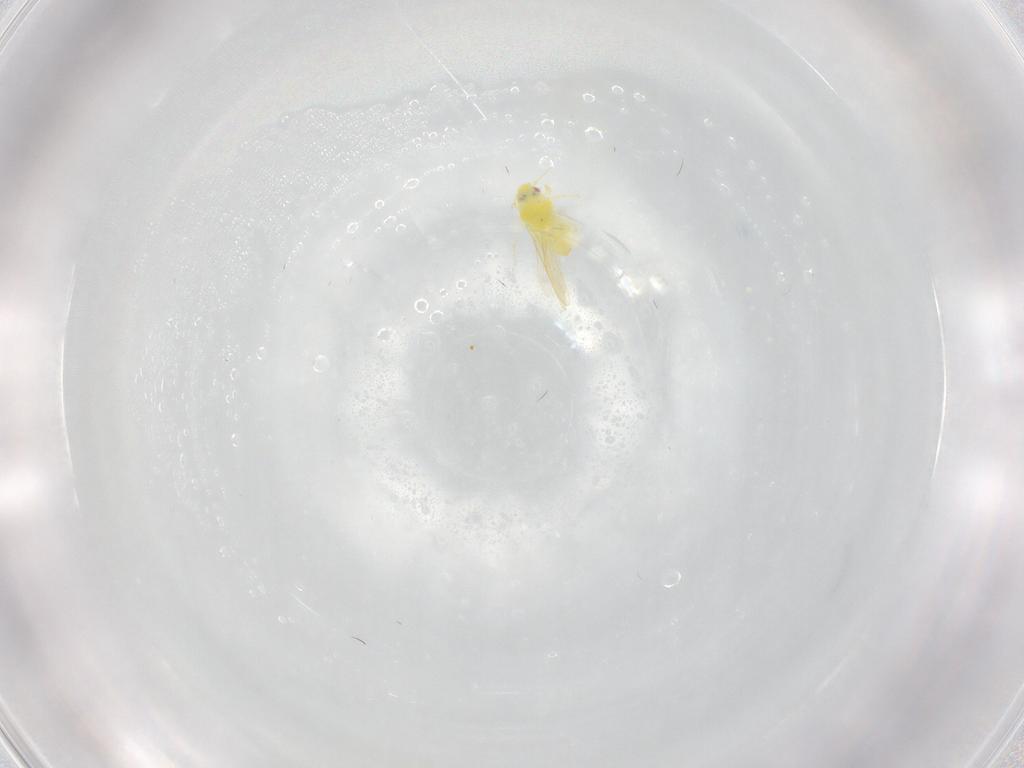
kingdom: Animalia
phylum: Arthropoda
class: Insecta
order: Hemiptera
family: Aleyrodidae
